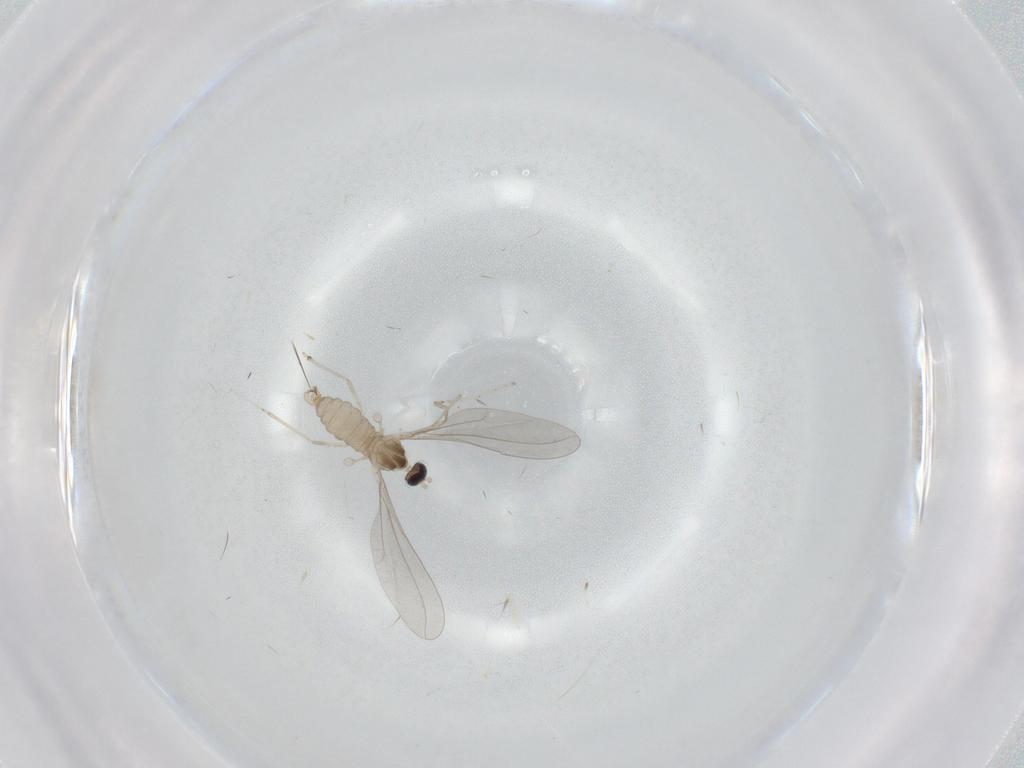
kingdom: Animalia
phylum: Arthropoda
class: Insecta
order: Diptera
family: Cecidomyiidae
